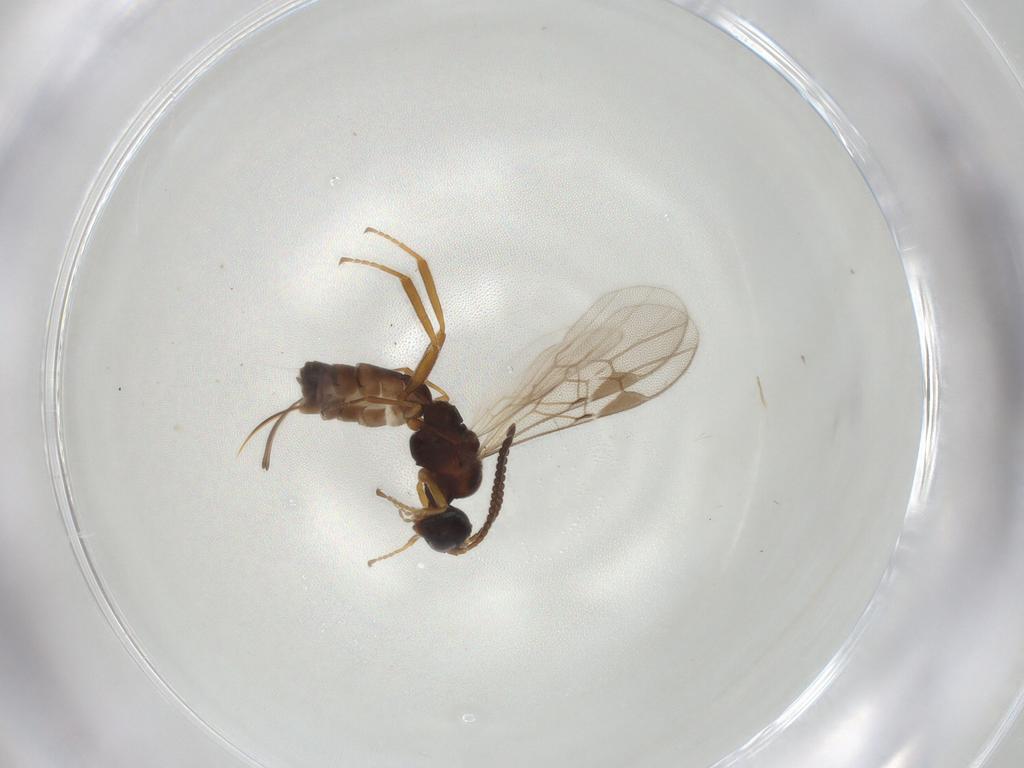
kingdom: Animalia
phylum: Arthropoda
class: Insecta
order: Hymenoptera
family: Braconidae
